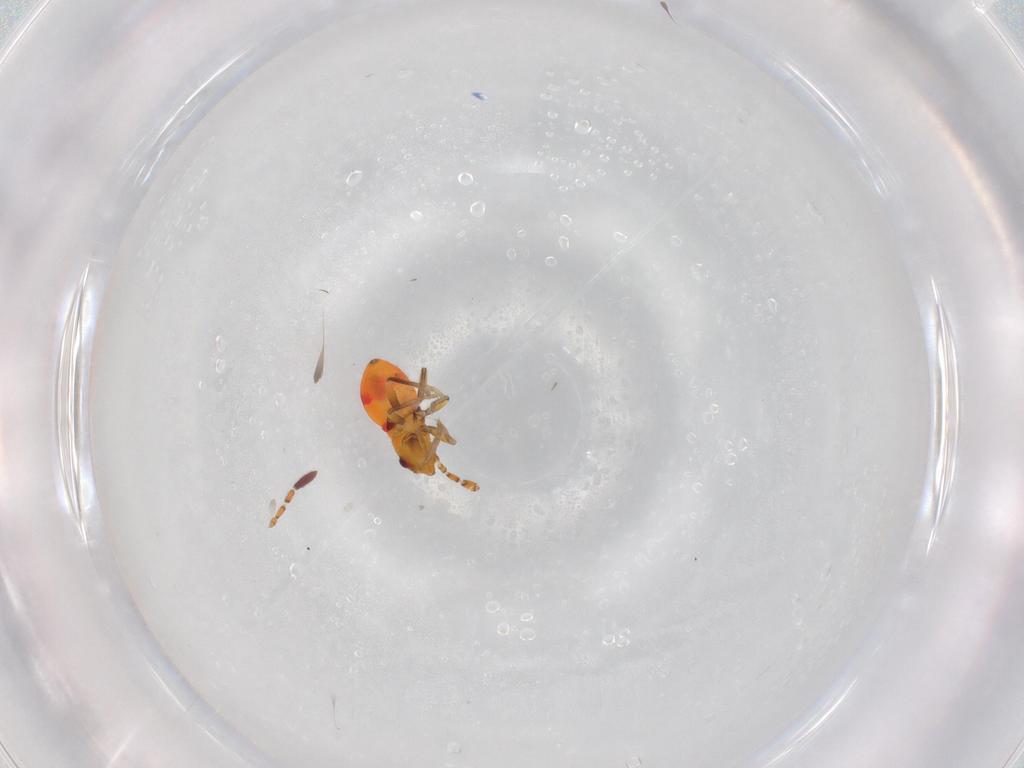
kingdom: Animalia
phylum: Arthropoda
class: Insecta
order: Hemiptera
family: Rhyparochromidae
